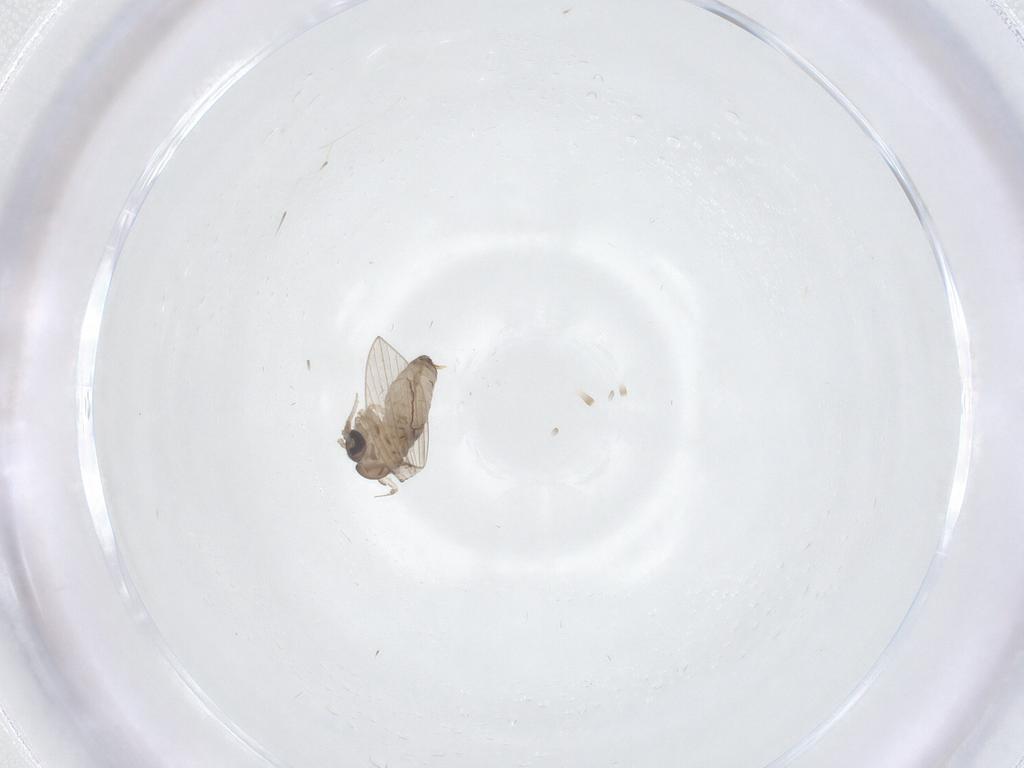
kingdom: Animalia
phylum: Arthropoda
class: Insecta
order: Diptera
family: Psychodidae
